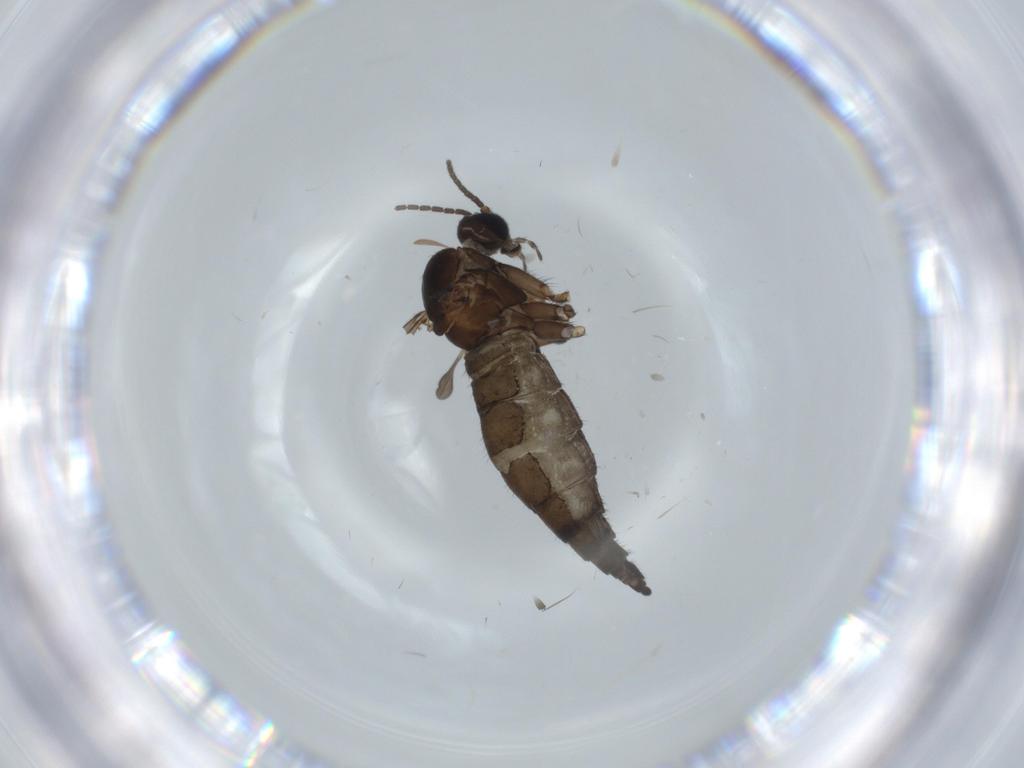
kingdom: Animalia
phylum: Arthropoda
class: Insecta
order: Diptera
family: Sciaridae
